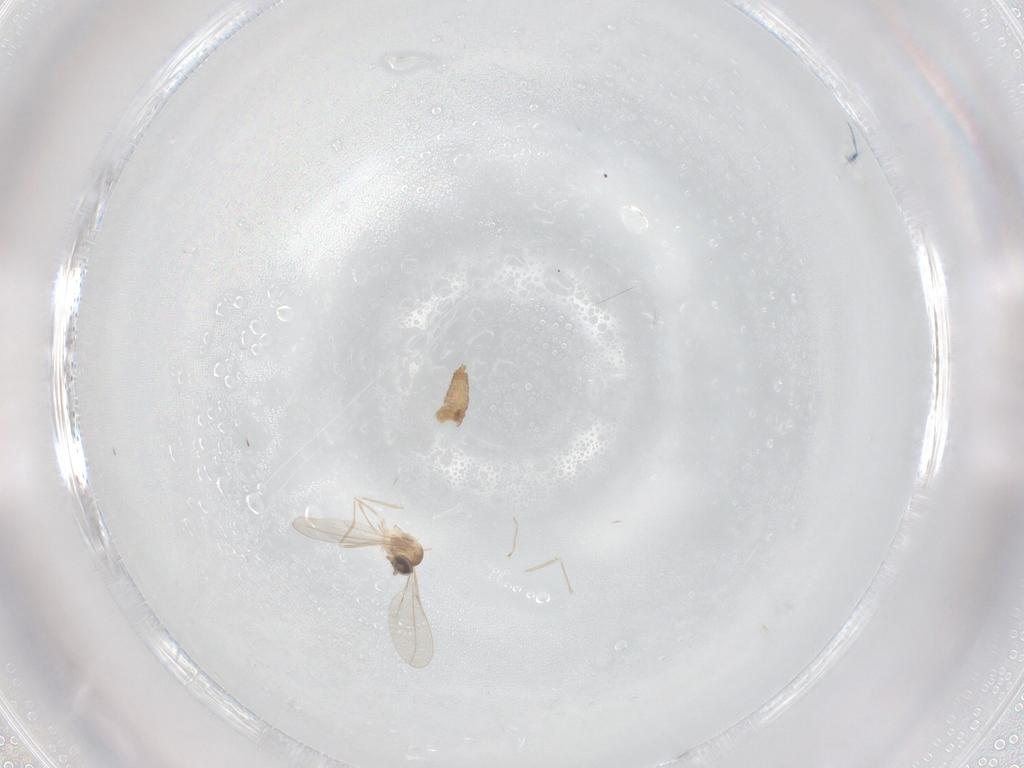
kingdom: Animalia
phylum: Arthropoda
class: Insecta
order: Diptera
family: Cecidomyiidae
